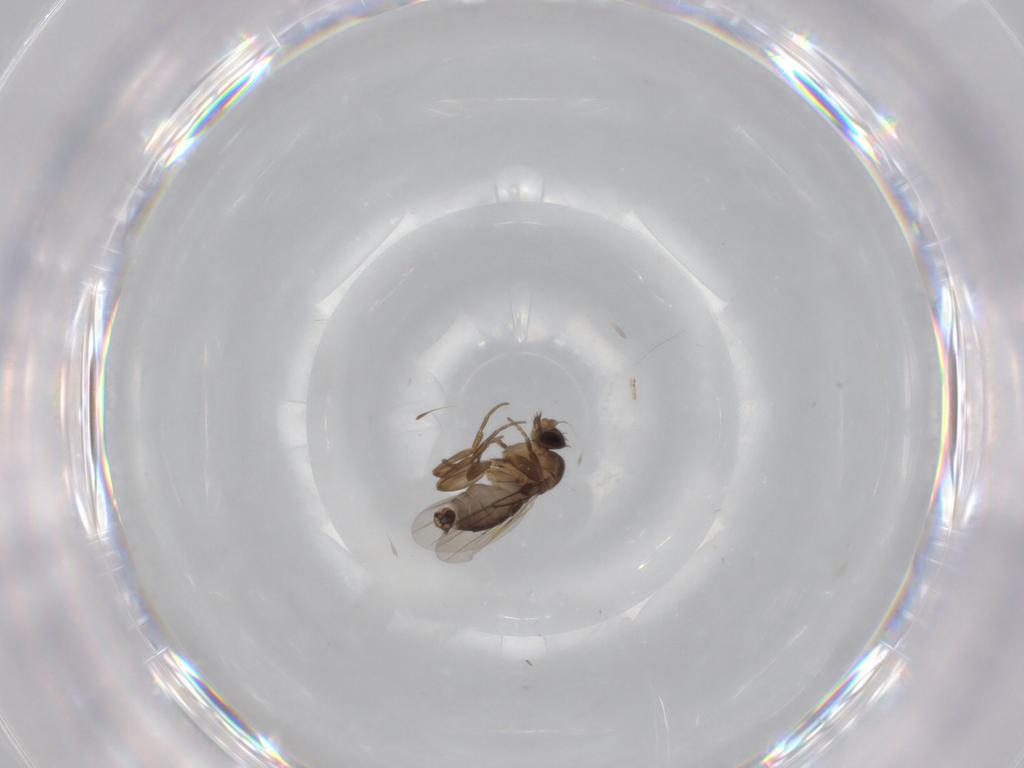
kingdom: Animalia
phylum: Arthropoda
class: Insecta
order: Diptera
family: Phoridae
